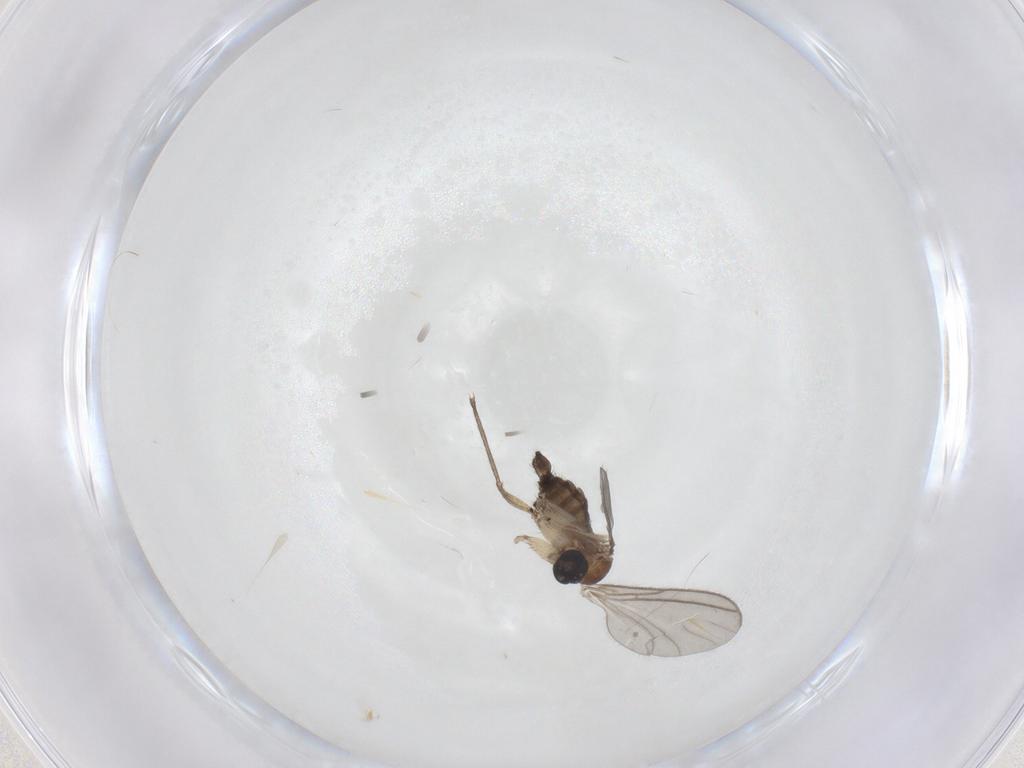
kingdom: Animalia
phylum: Arthropoda
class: Insecta
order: Diptera
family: Sciaridae
